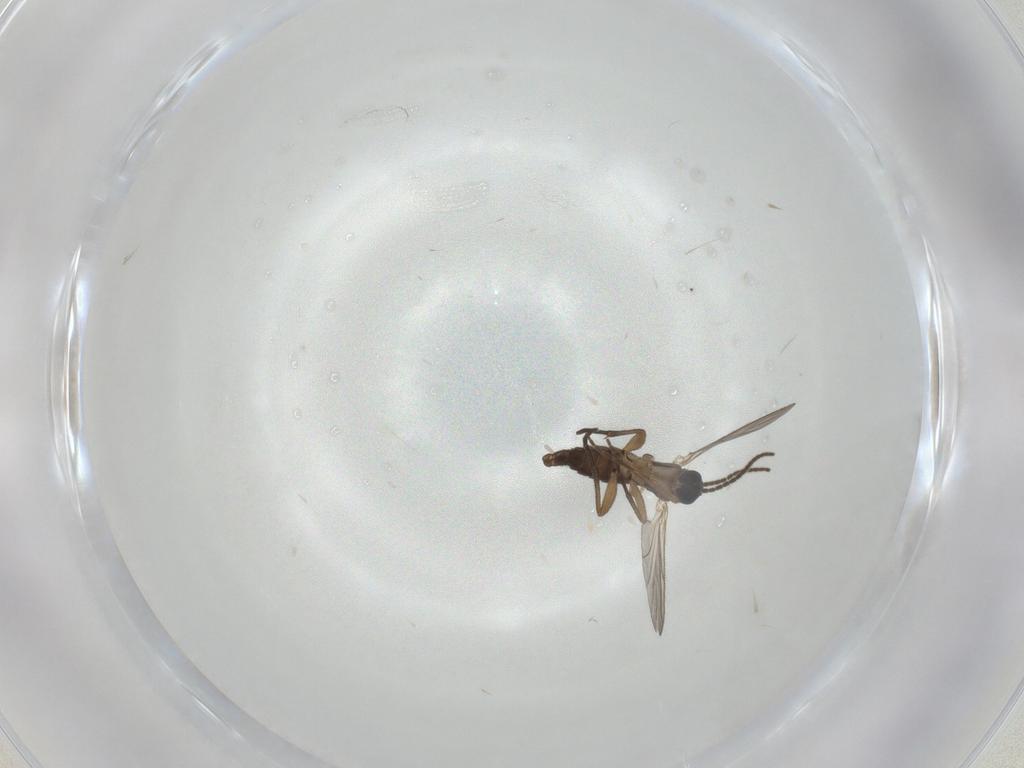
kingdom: Animalia
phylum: Arthropoda
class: Insecta
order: Diptera
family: Sciaridae
